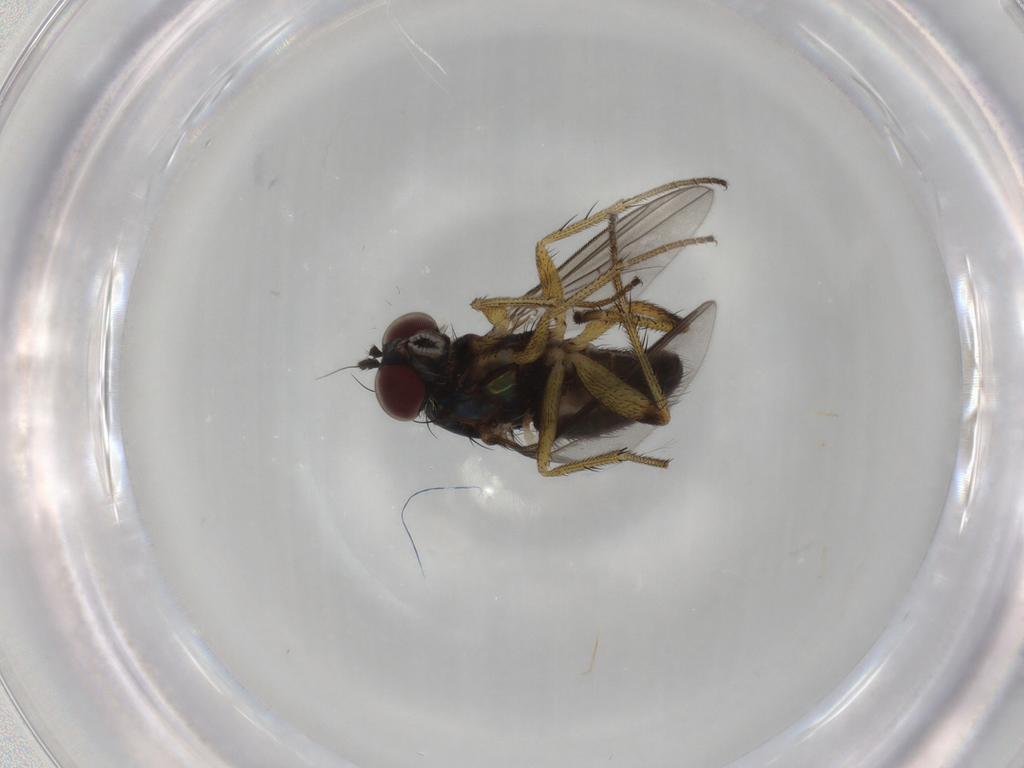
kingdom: Animalia
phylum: Arthropoda
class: Insecta
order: Diptera
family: Dolichopodidae
